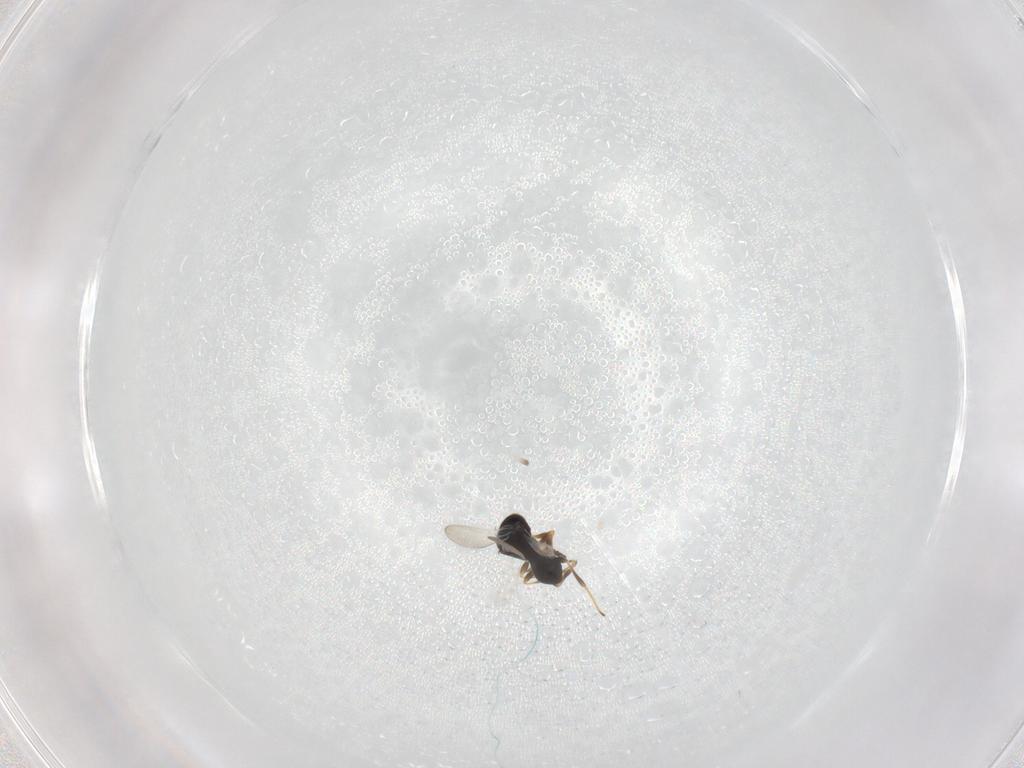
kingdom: Animalia
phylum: Arthropoda
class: Insecta
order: Hymenoptera
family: Platygastridae
